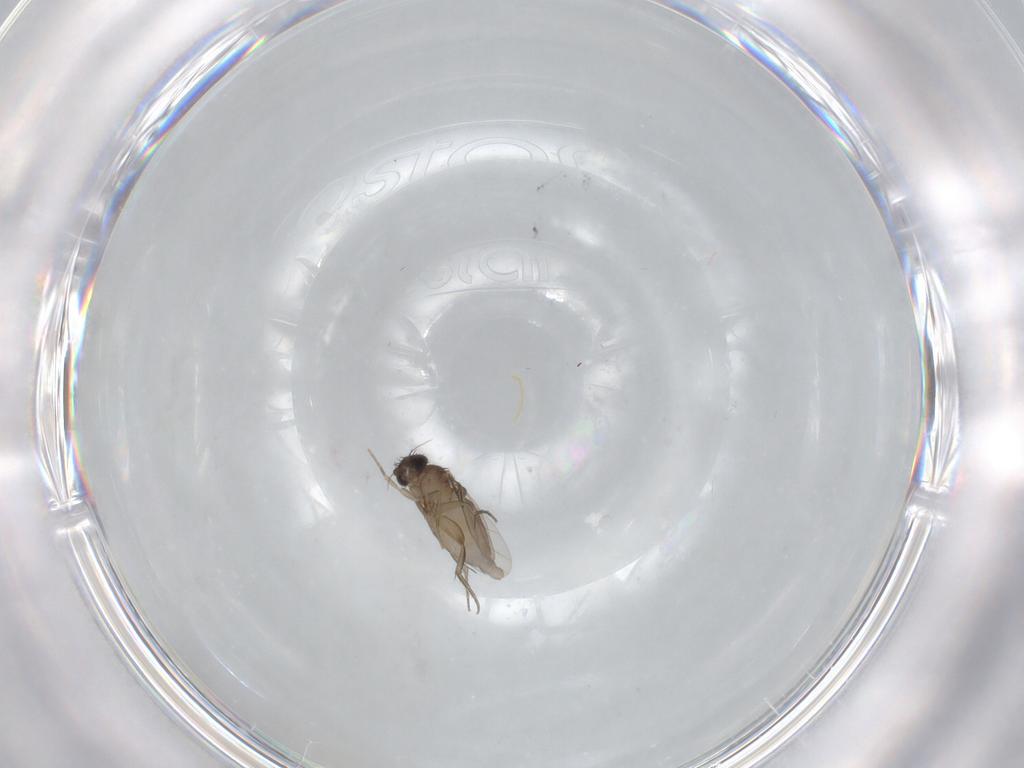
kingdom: Animalia
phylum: Arthropoda
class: Insecta
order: Diptera
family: Phoridae
